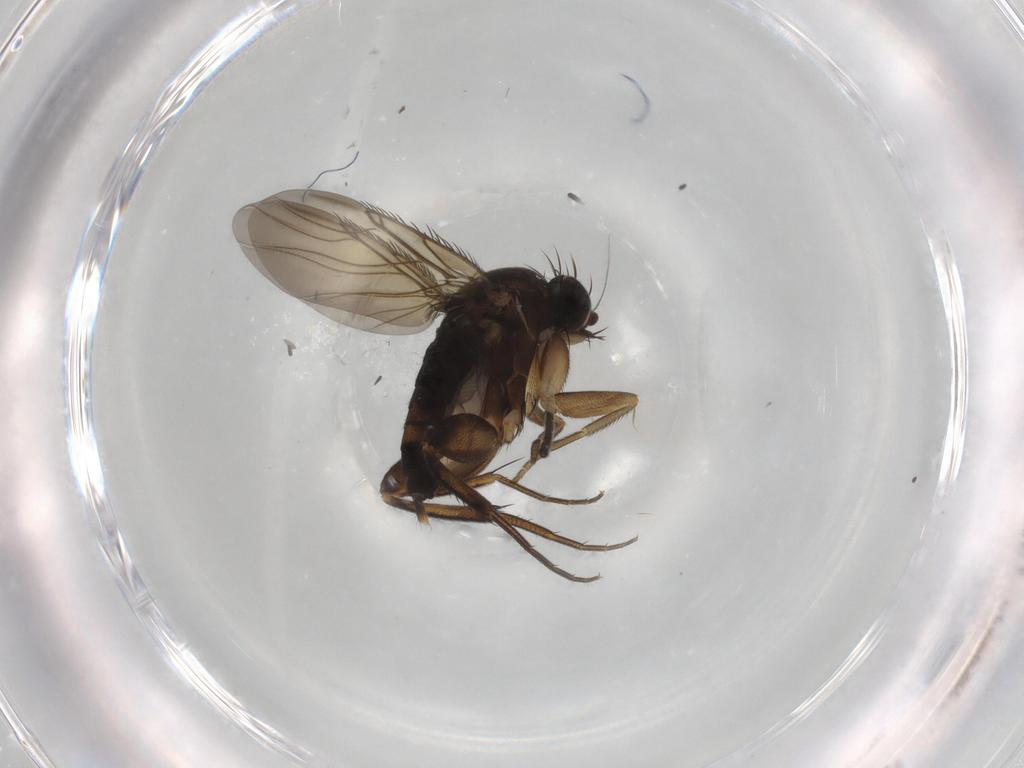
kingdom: Animalia
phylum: Arthropoda
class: Insecta
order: Diptera
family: Phoridae
